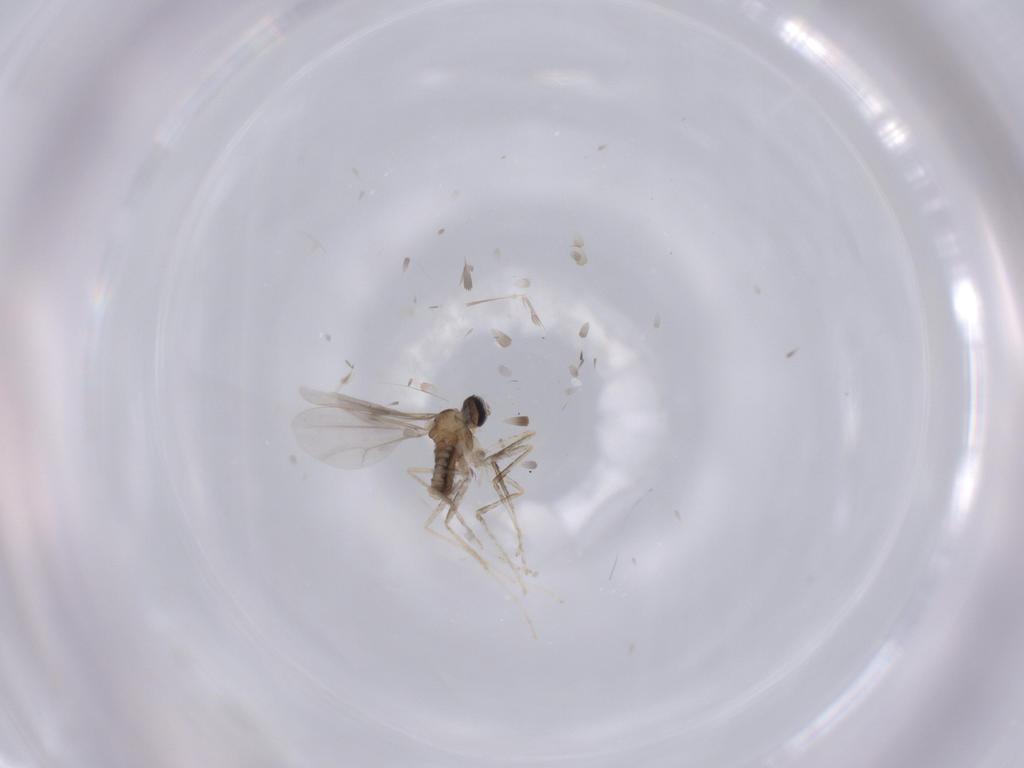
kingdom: Animalia
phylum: Arthropoda
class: Insecta
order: Diptera
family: Cecidomyiidae
